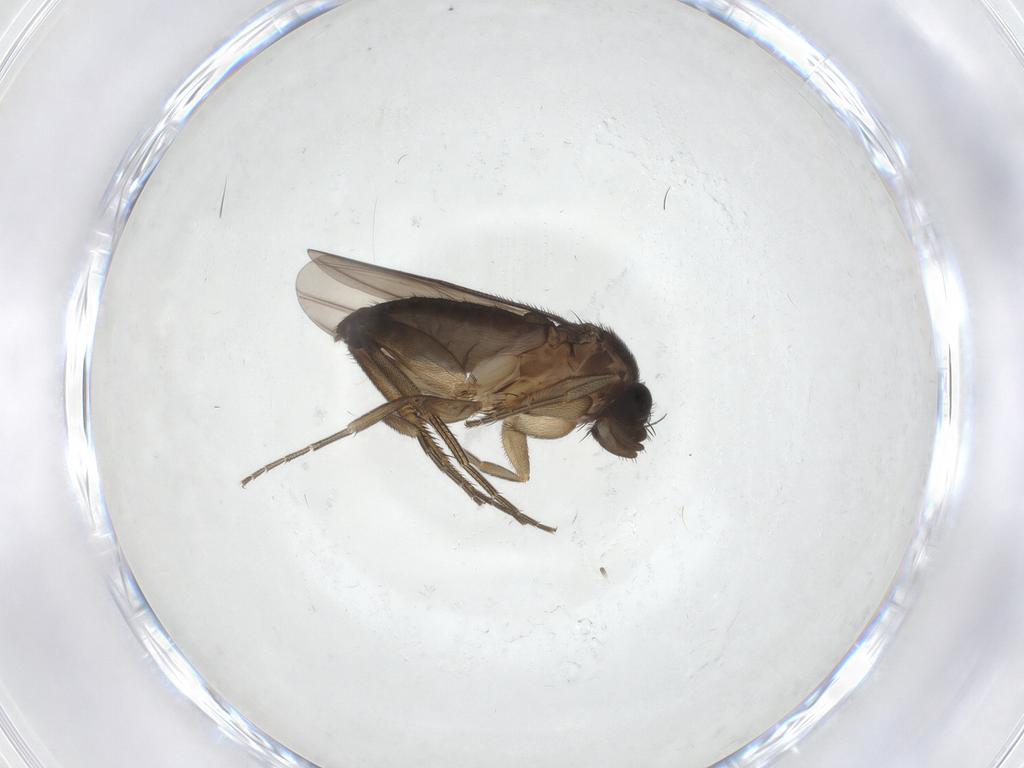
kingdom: Animalia
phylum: Arthropoda
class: Insecta
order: Diptera
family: Phoridae
